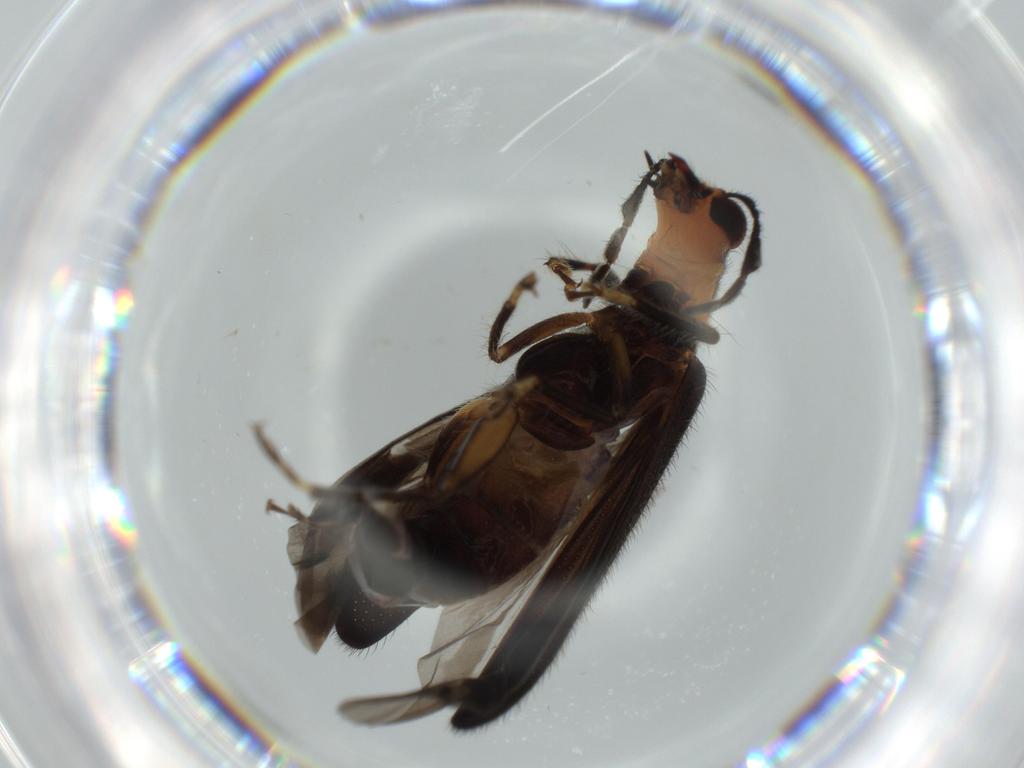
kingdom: Animalia
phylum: Arthropoda
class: Insecta
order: Coleoptera
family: Cleridae
